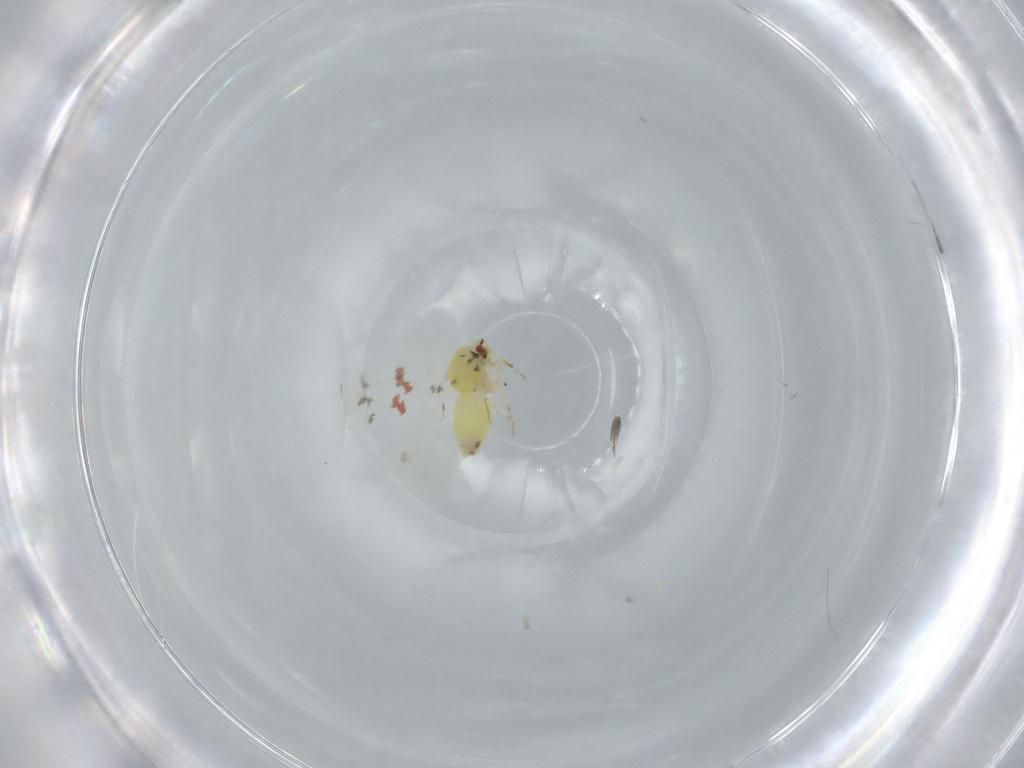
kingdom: Animalia
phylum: Arthropoda
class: Insecta
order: Hemiptera
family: Aleyrodidae
